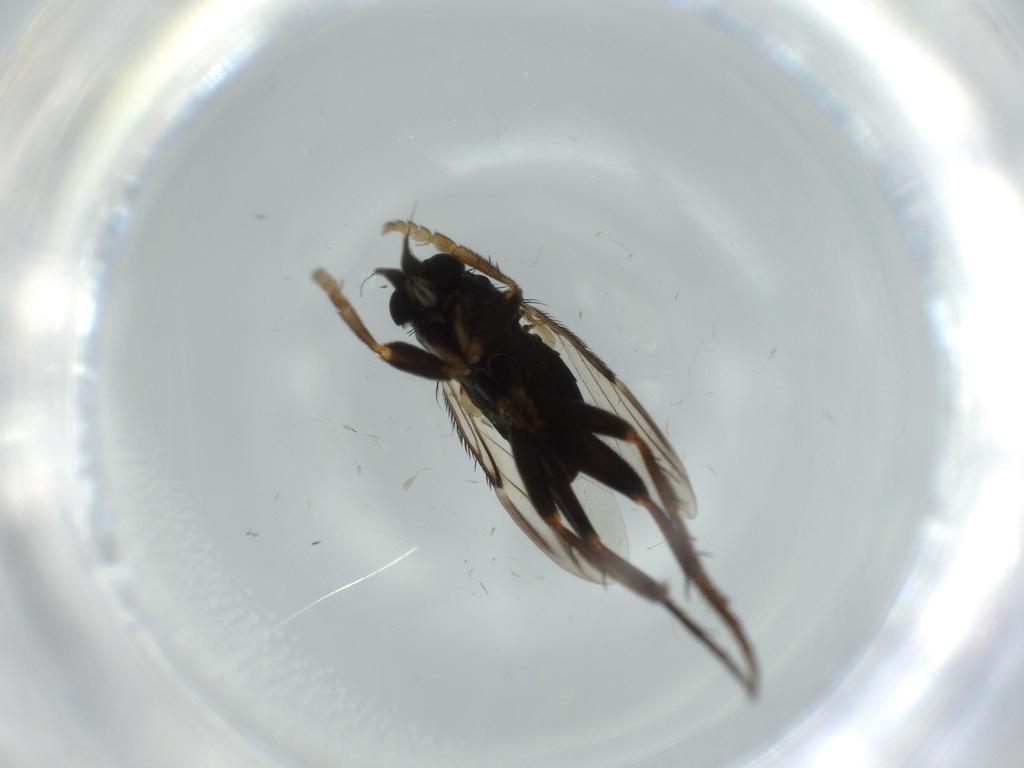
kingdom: Animalia
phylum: Arthropoda
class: Insecta
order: Diptera
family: Phoridae
